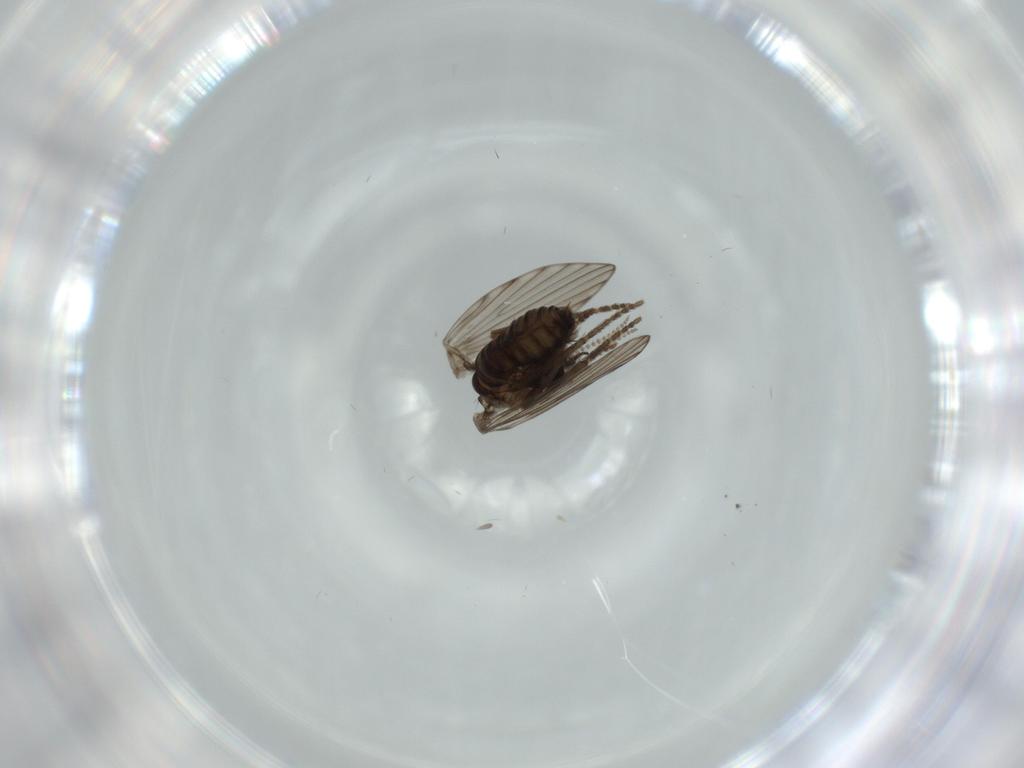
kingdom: Animalia
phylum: Arthropoda
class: Insecta
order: Diptera
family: Psychodidae
